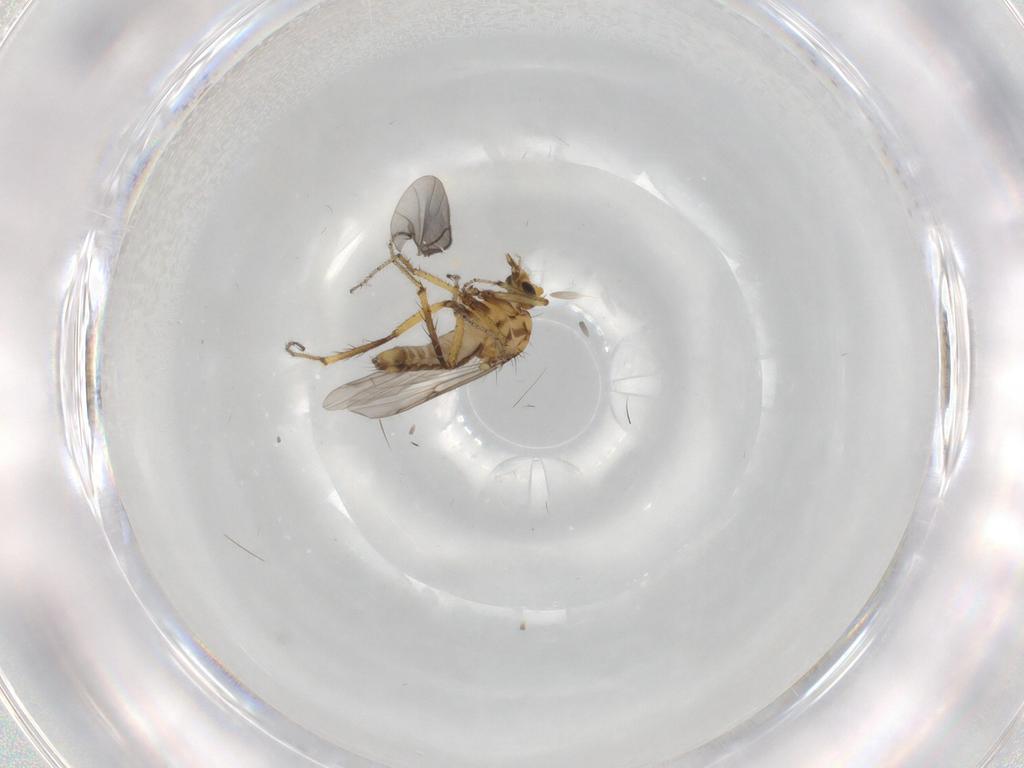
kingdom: Animalia
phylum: Arthropoda
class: Insecta
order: Diptera
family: Ceratopogonidae
